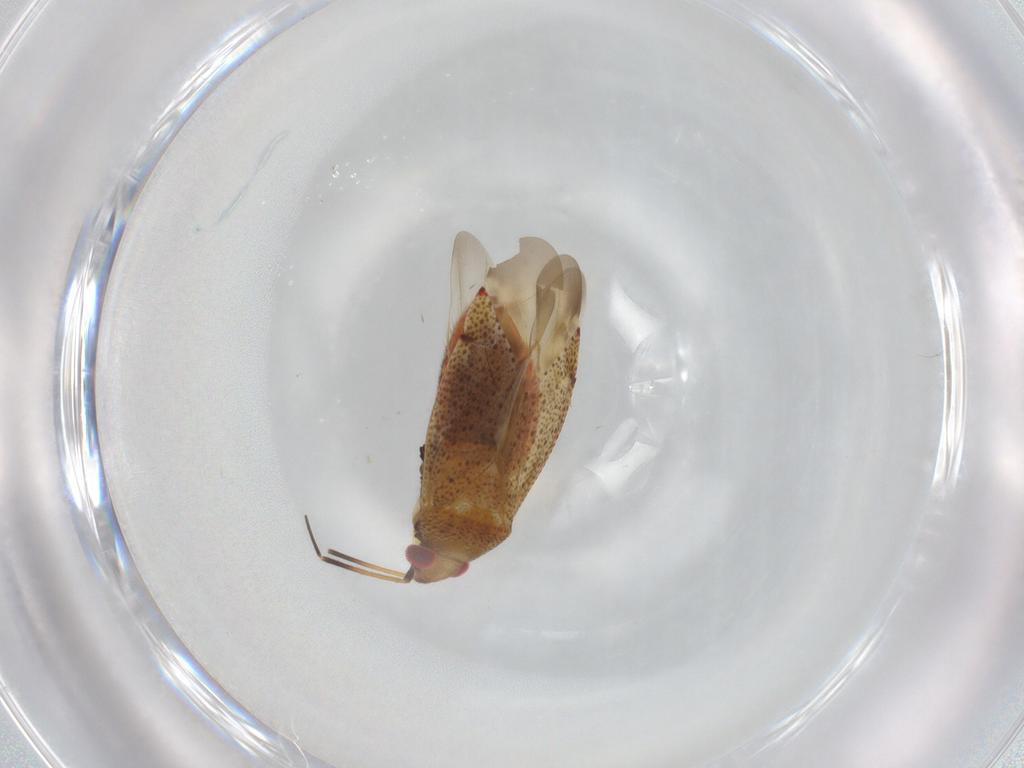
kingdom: Animalia
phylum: Arthropoda
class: Insecta
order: Hemiptera
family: Miridae
